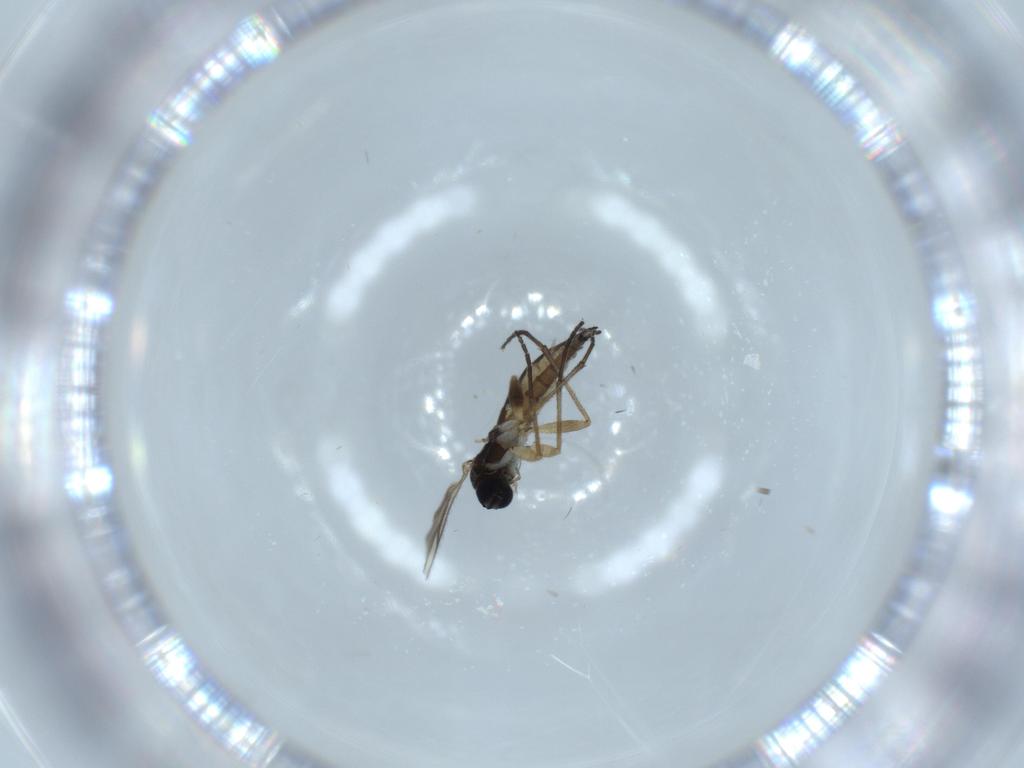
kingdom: Animalia
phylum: Arthropoda
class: Insecta
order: Diptera
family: Sciaridae
